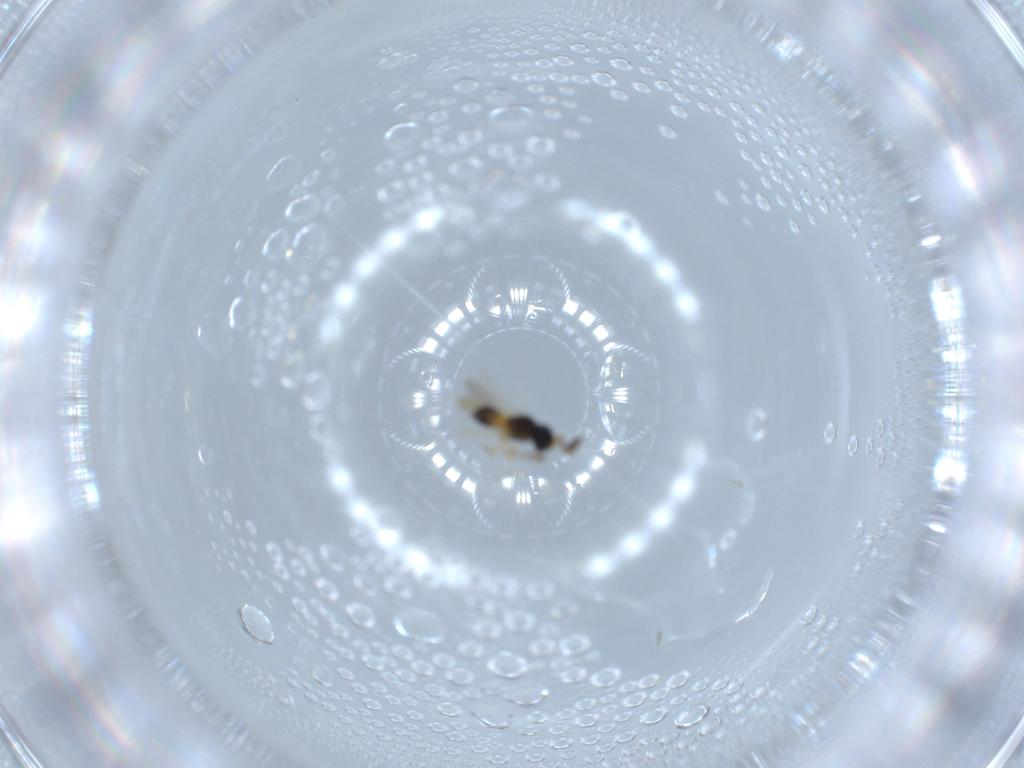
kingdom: Animalia
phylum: Arthropoda
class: Insecta
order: Hymenoptera
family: Scelionidae
